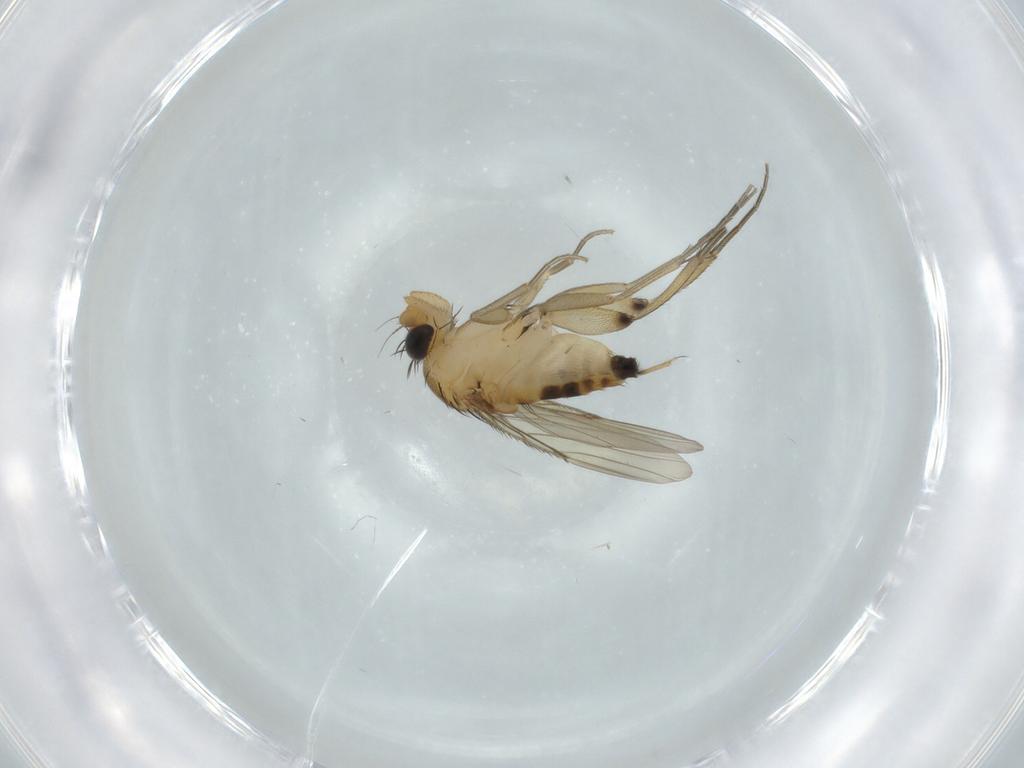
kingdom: Animalia
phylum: Arthropoda
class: Insecta
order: Diptera
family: Phoridae
